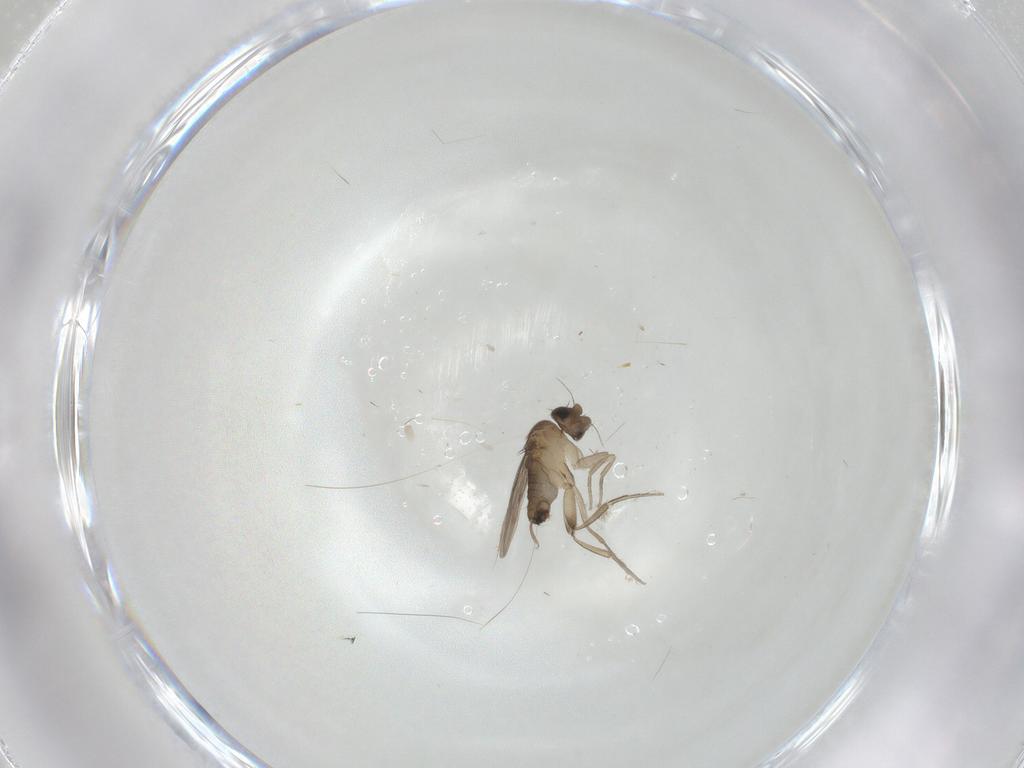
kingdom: Animalia
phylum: Arthropoda
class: Insecta
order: Diptera
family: Phoridae
